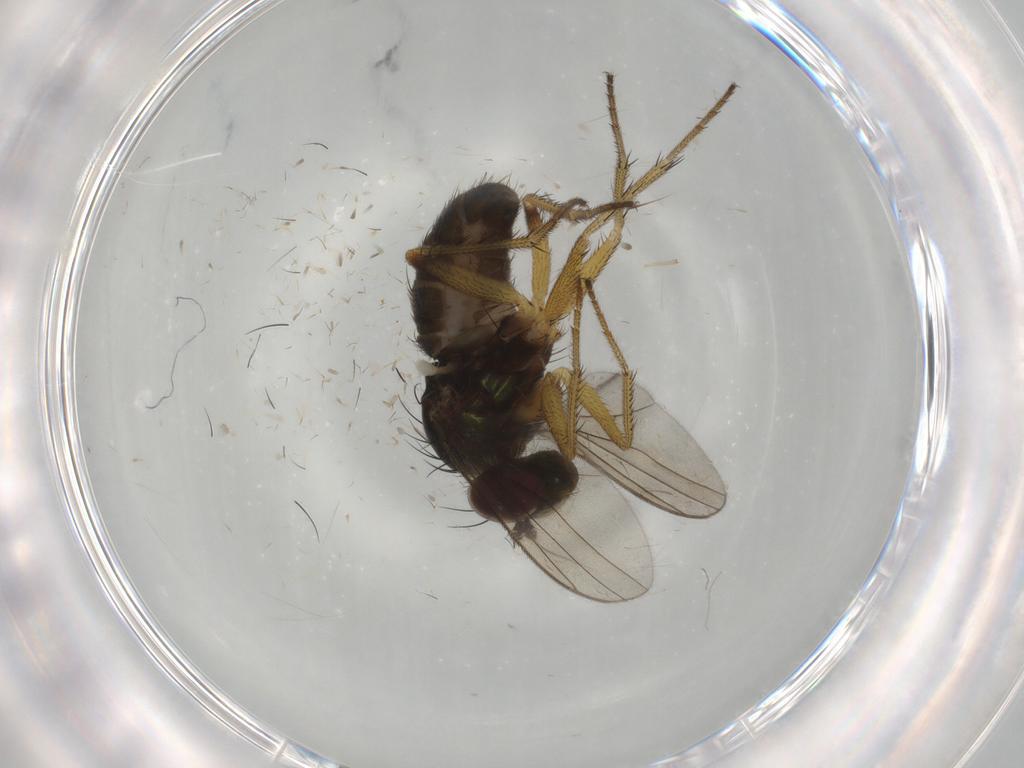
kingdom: Animalia
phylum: Arthropoda
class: Insecta
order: Diptera
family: Dolichopodidae
